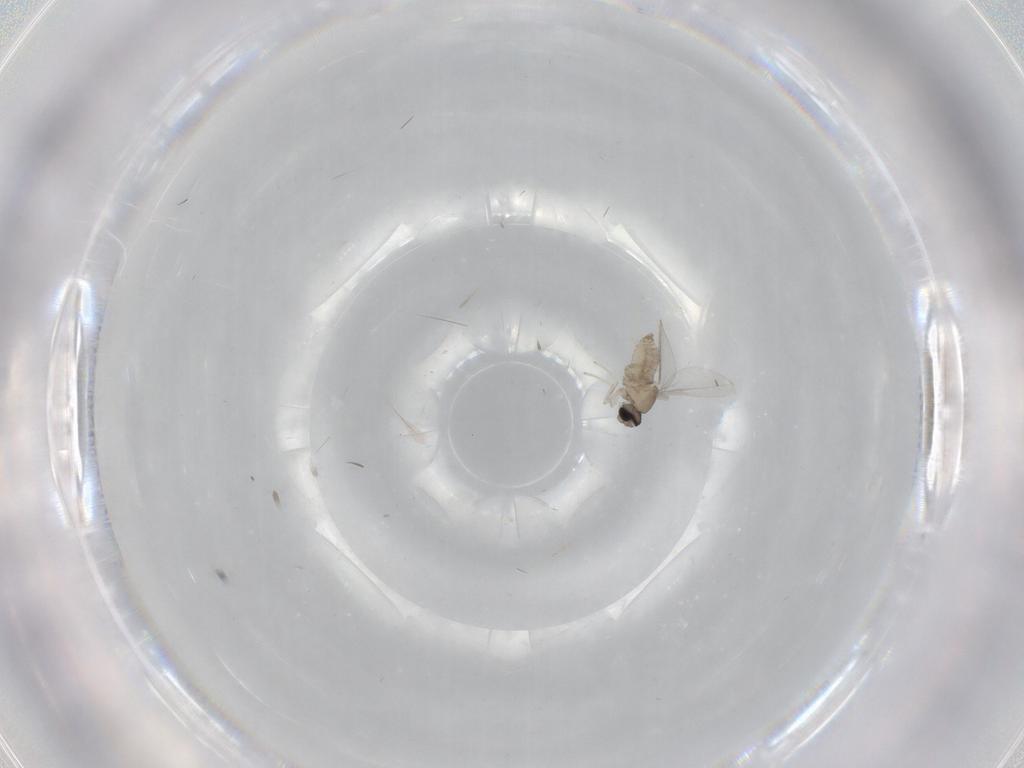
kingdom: Animalia
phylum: Arthropoda
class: Insecta
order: Diptera
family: Cecidomyiidae
